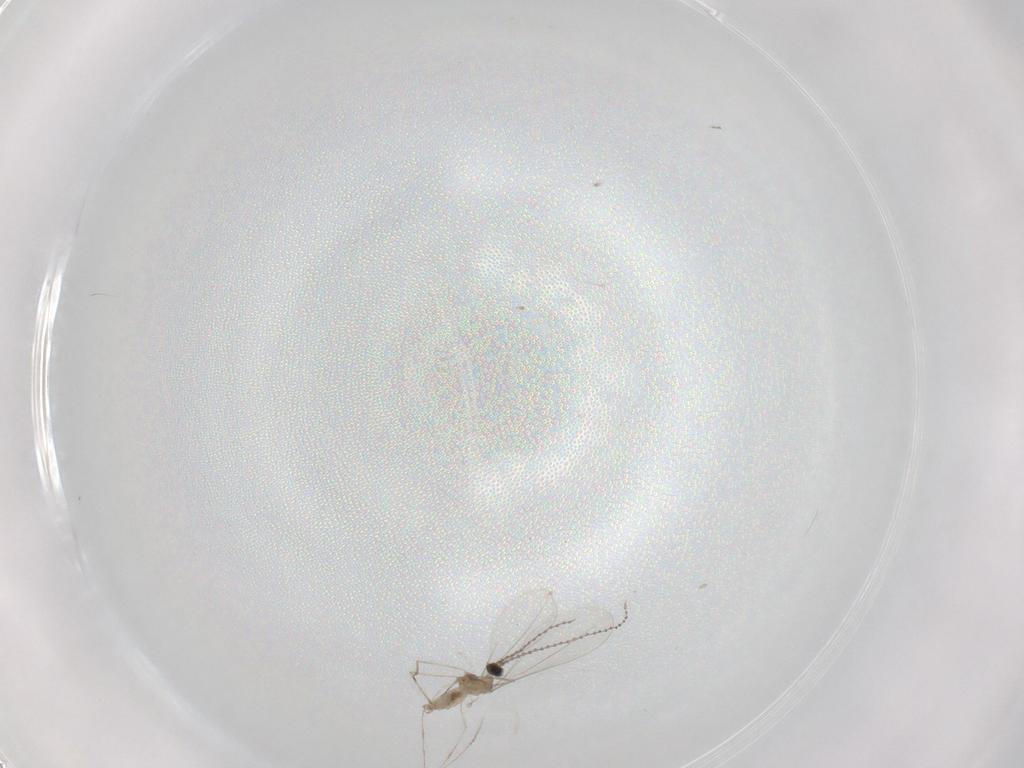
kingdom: Animalia
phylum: Arthropoda
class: Insecta
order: Diptera
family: Cecidomyiidae
